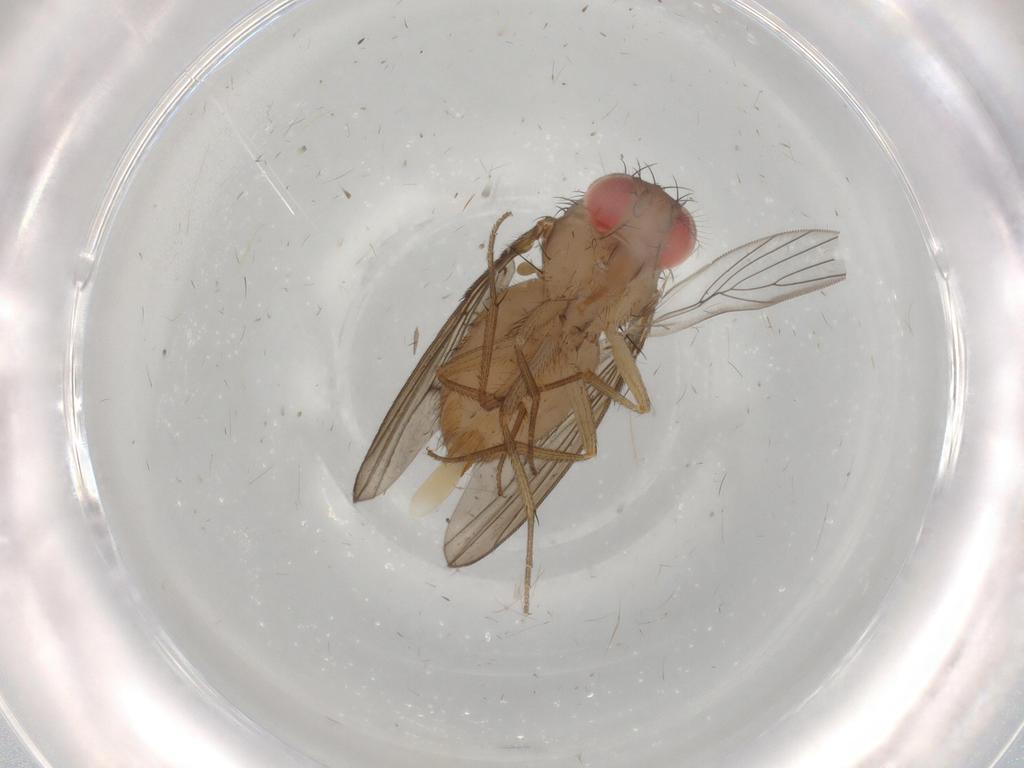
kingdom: Animalia
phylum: Arthropoda
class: Insecta
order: Diptera
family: Drosophilidae
